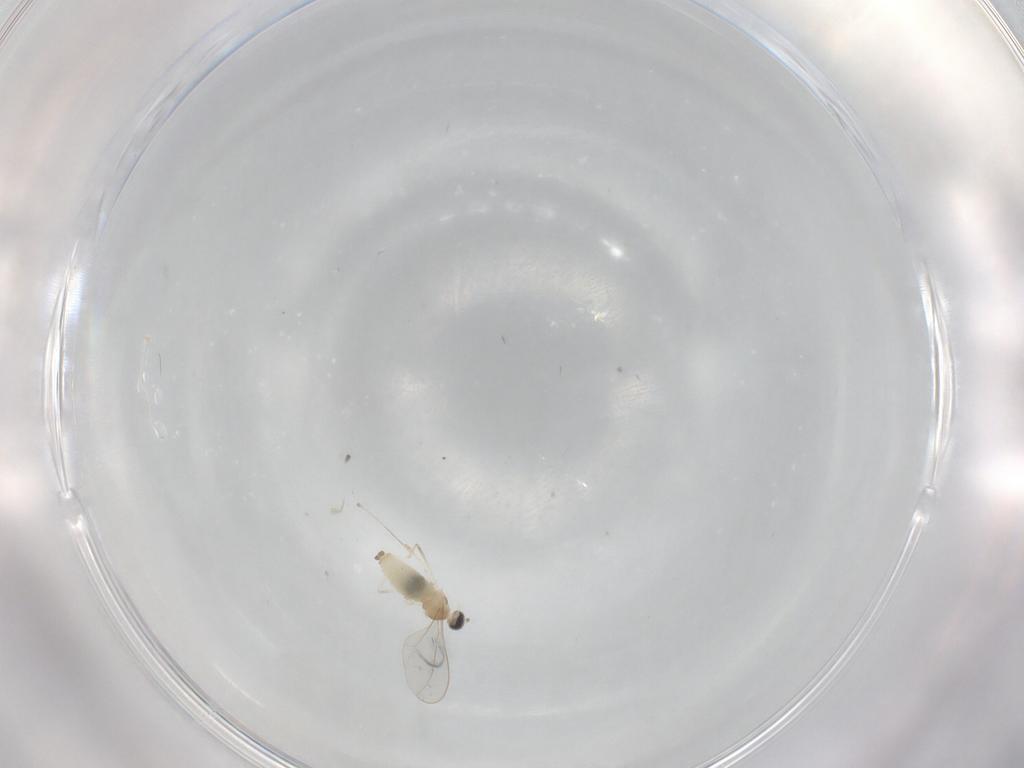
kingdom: Animalia
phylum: Arthropoda
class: Insecta
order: Diptera
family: Cecidomyiidae
